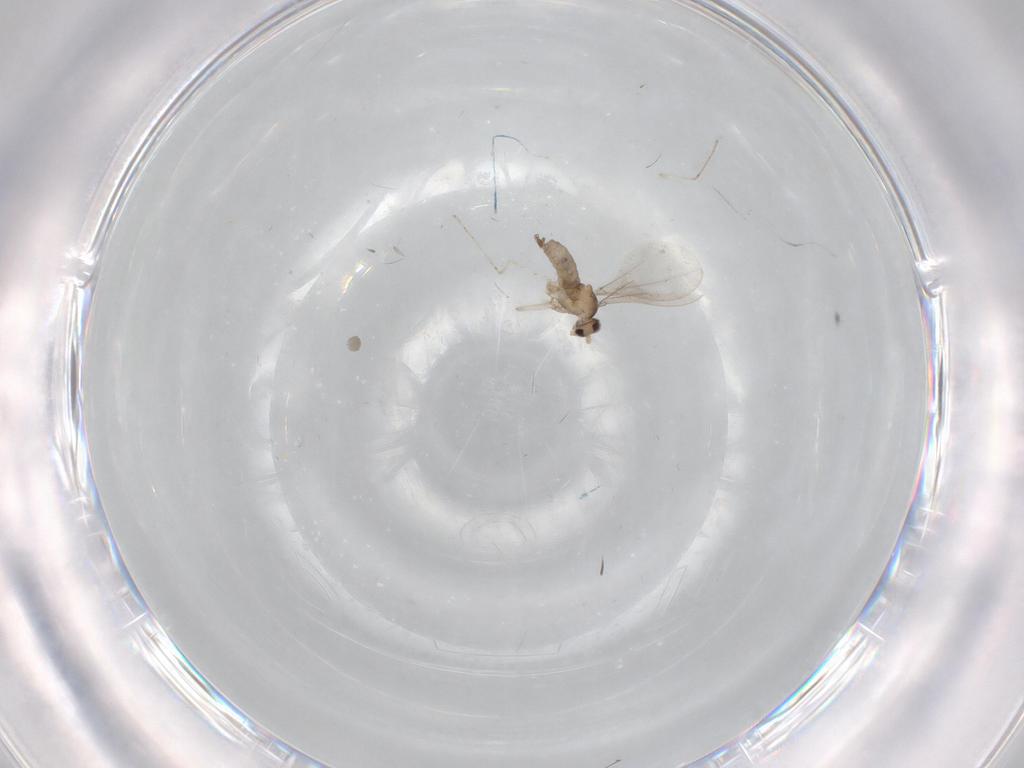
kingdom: Animalia
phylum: Arthropoda
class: Insecta
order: Diptera
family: Cecidomyiidae
